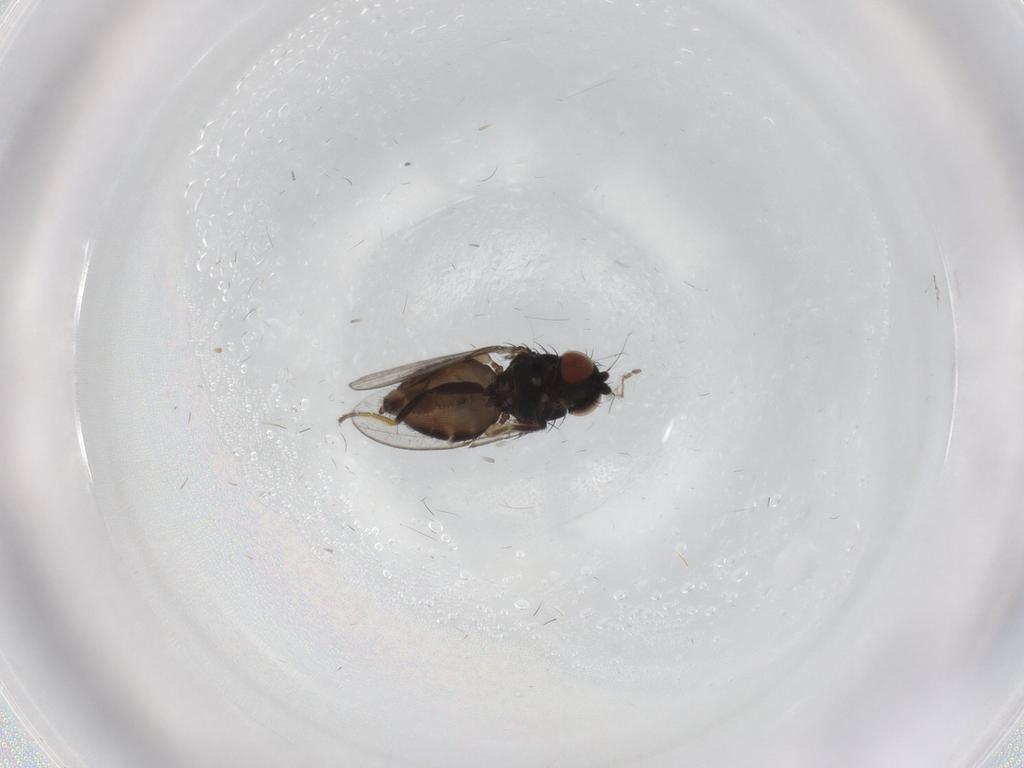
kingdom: Animalia
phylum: Arthropoda
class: Insecta
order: Diptera
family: Milichiidae
